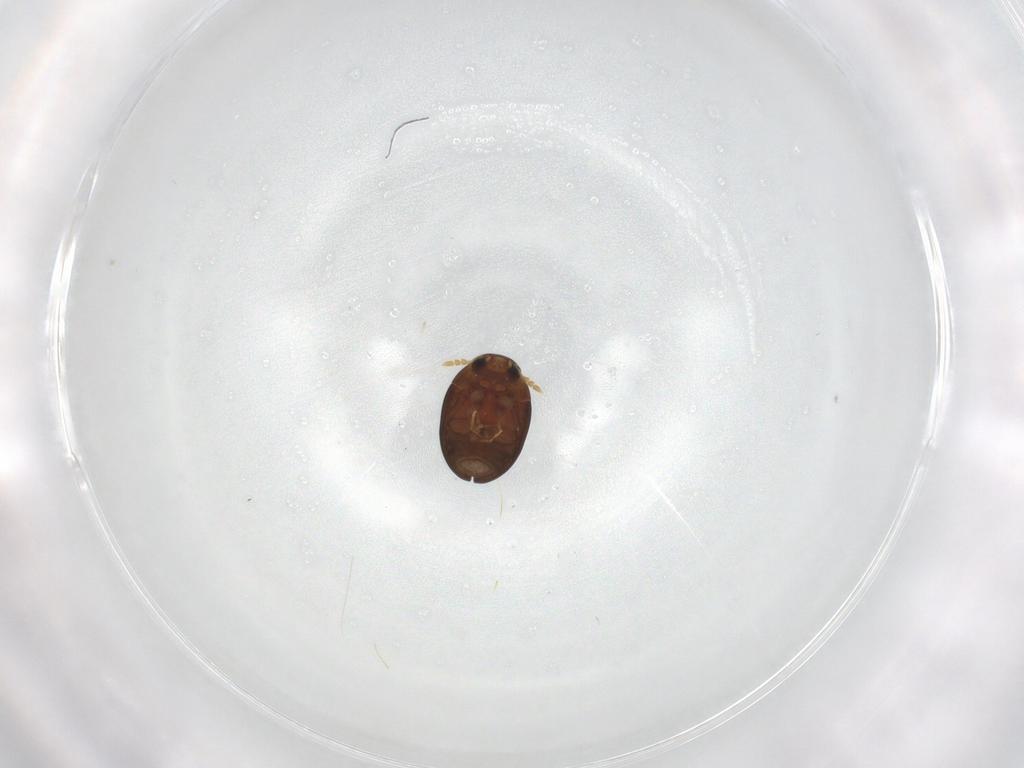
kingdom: Animalia
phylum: Arthropoda
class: Insecta
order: Coleoptera
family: Phalacridae
